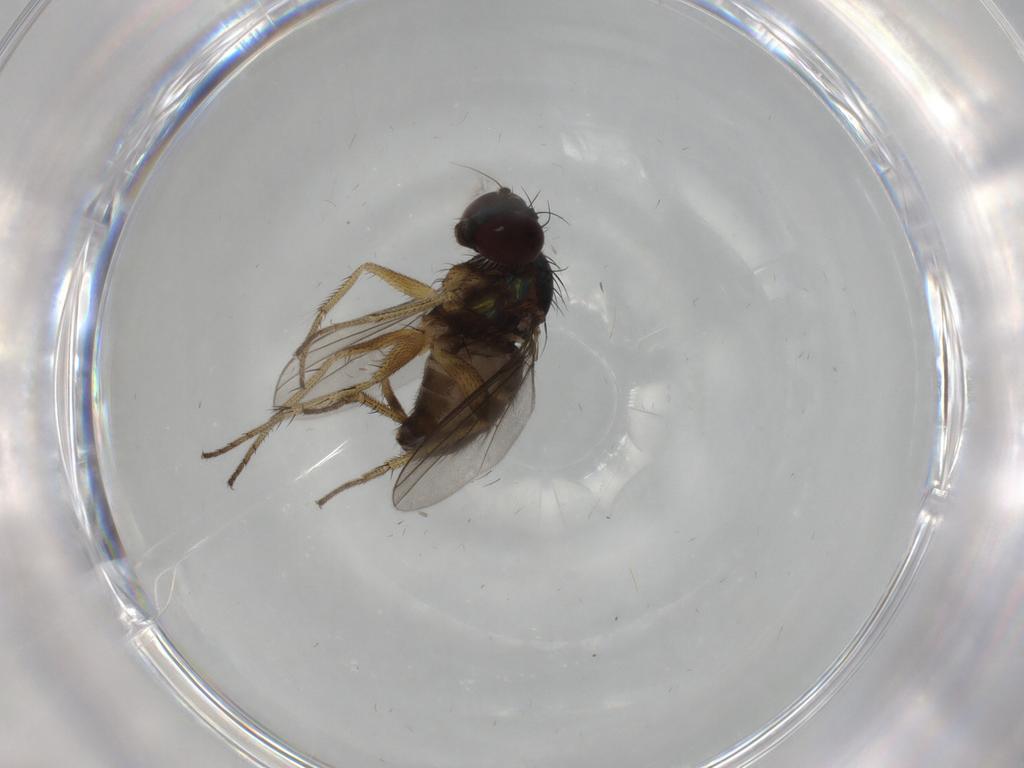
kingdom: Animalia
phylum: Arthropoda
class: Insecta
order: Diptera
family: Dolichopodidae
